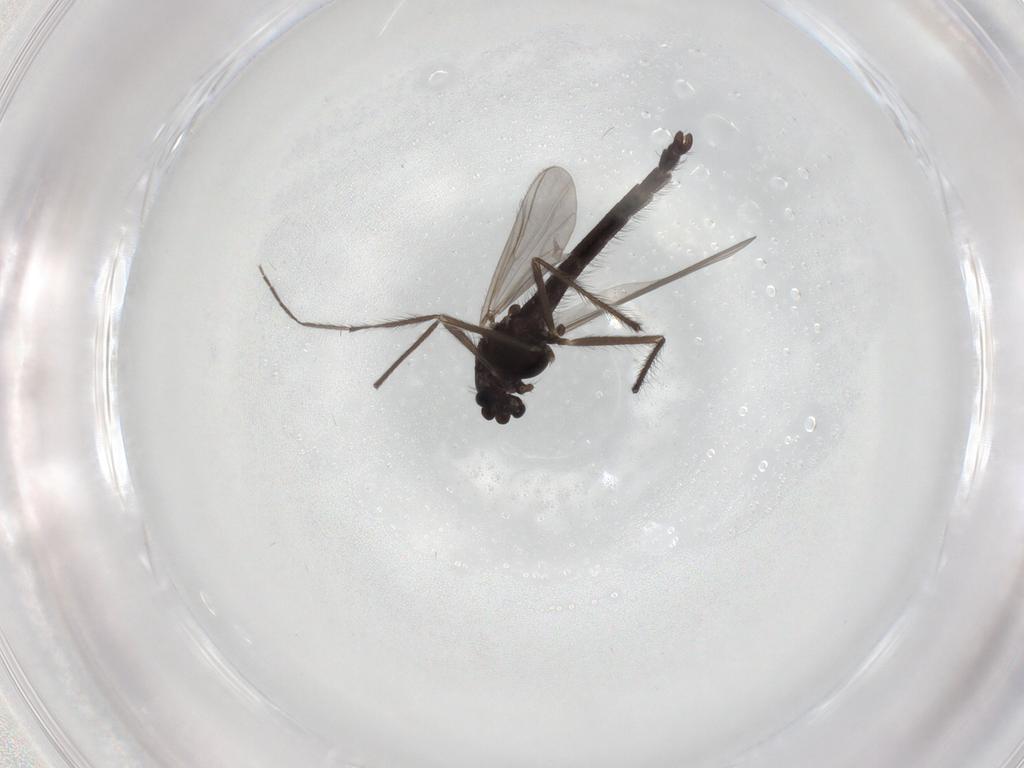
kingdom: Animalia
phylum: Arthropoda
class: Insecta
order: Diptera
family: Chironomidae
